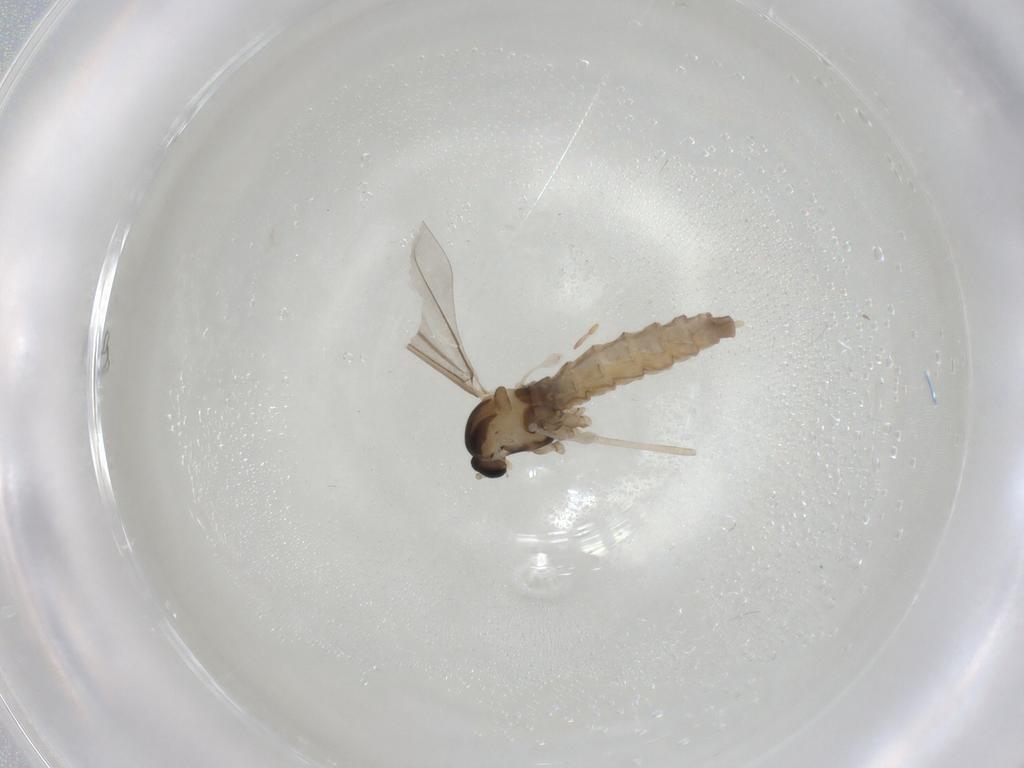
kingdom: Animalia
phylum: Arthropoda
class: Insecta
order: Diptera
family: Cecidomyiidae
